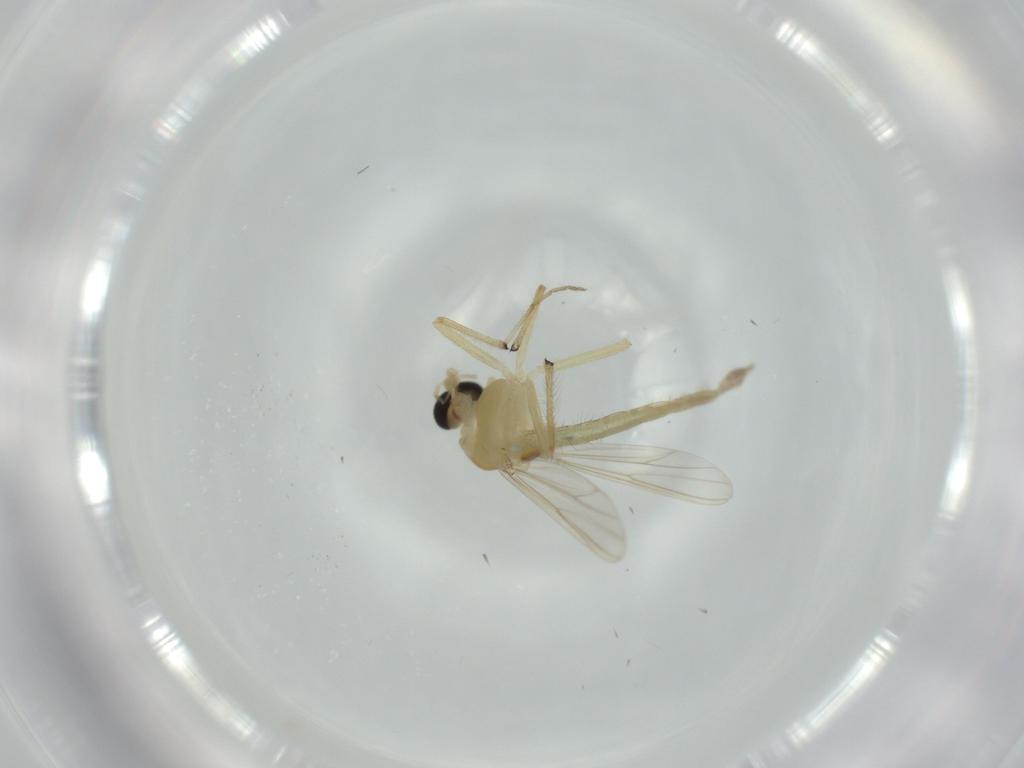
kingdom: Animalia
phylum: Arthropoda
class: Insecta
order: Diptera
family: Chironomidae
